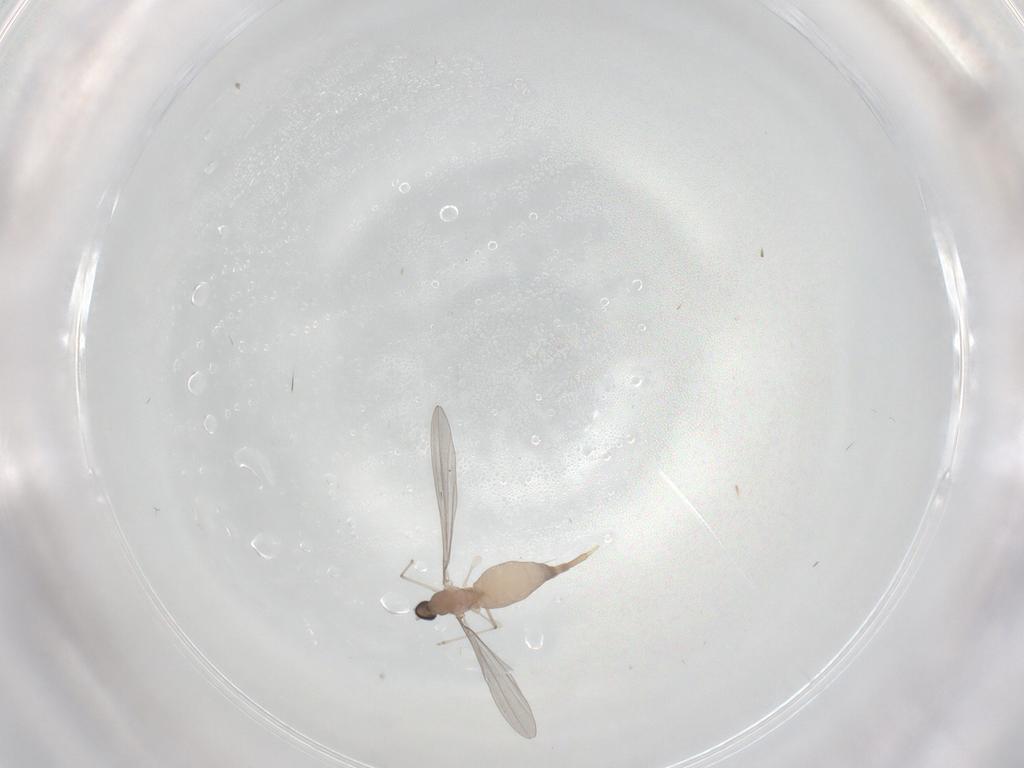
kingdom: Animalia
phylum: Arthropoda
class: Insecta
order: Diptera
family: Cecidomyiidae
